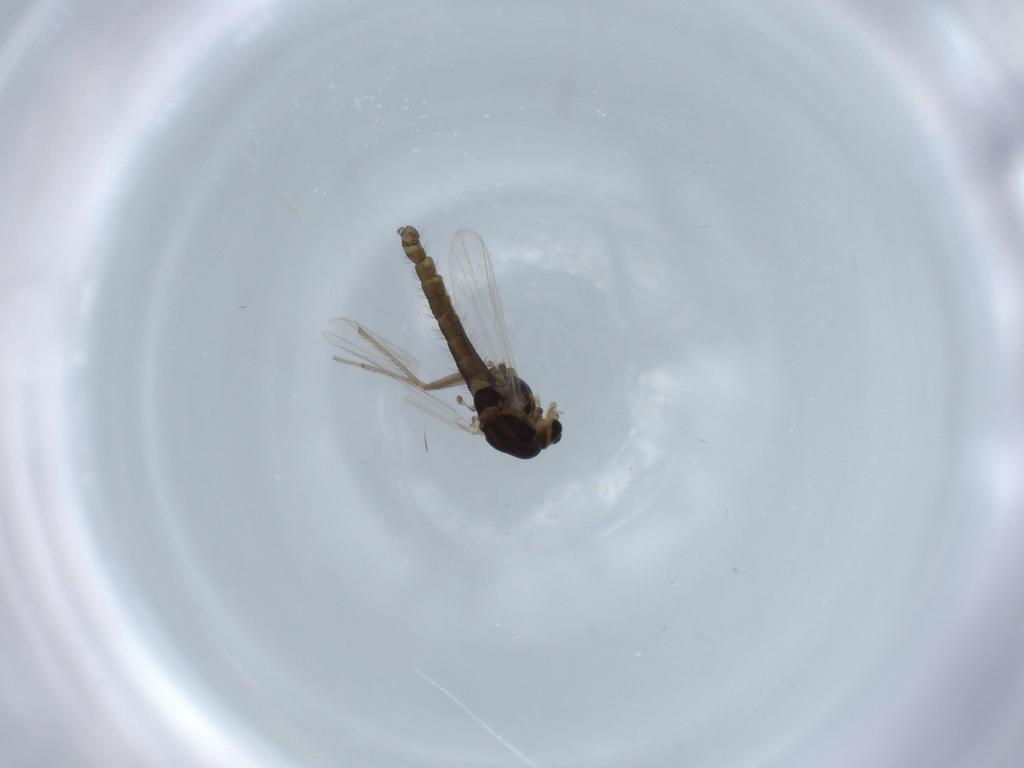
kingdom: Animalia
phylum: Arthropoda
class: Insecta
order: Diptera
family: Chironomidae
